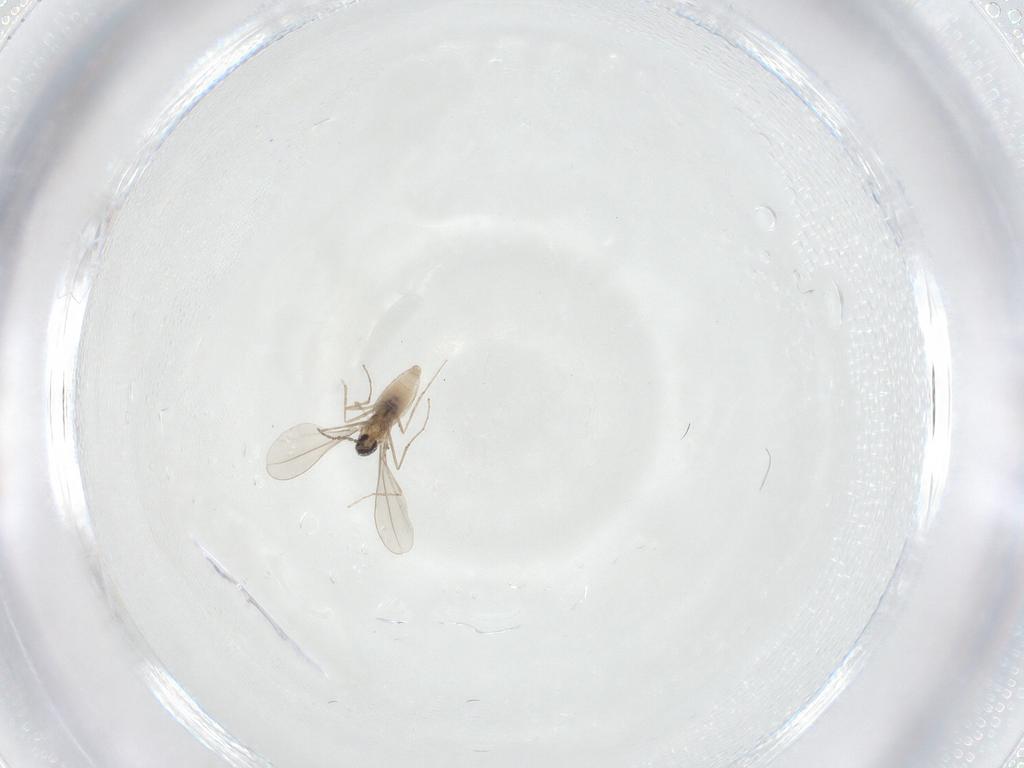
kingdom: Animalia
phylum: Arthropoda
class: Insecta
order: Diptera
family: Cecidomyiidae
